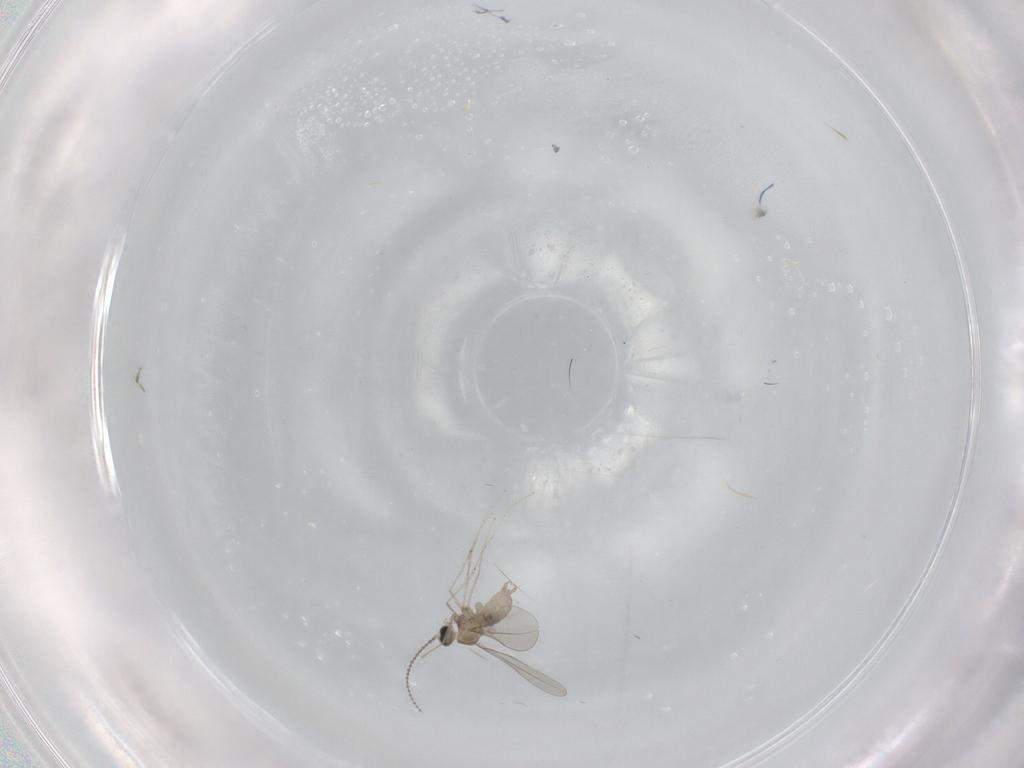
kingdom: Animalia
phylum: Arthropoda
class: Insecta
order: Diptera
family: Cecidomyiidae
